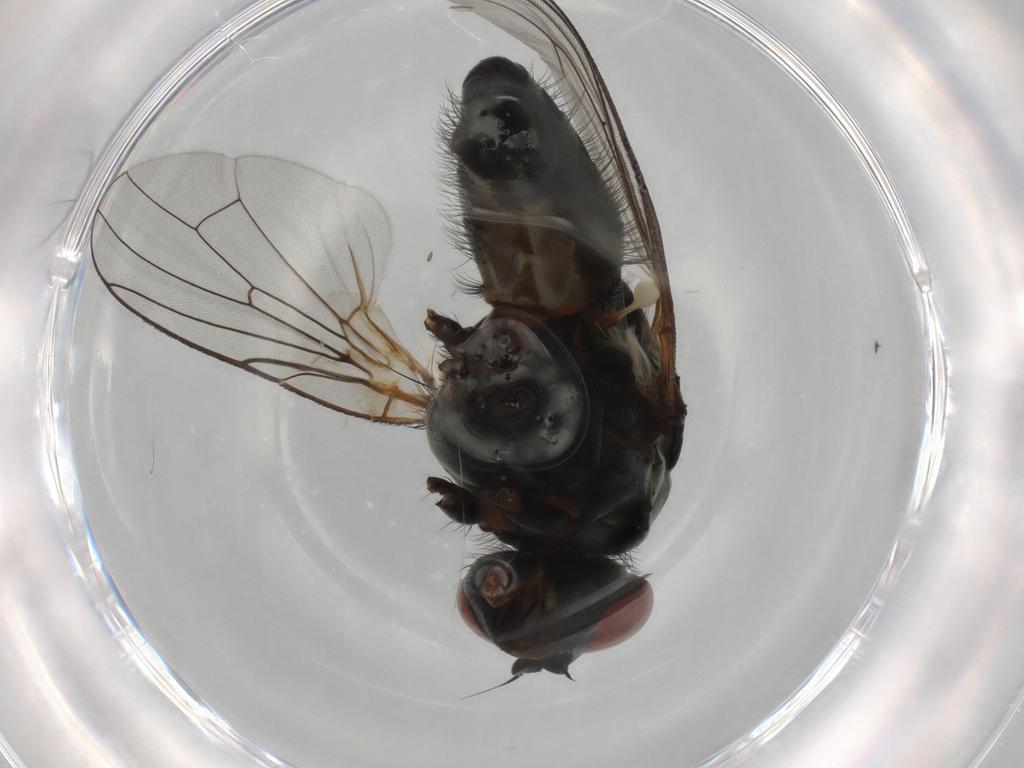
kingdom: Animalia
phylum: Arthropoda
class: Insecta
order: Diptera
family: Anthomyiidae
